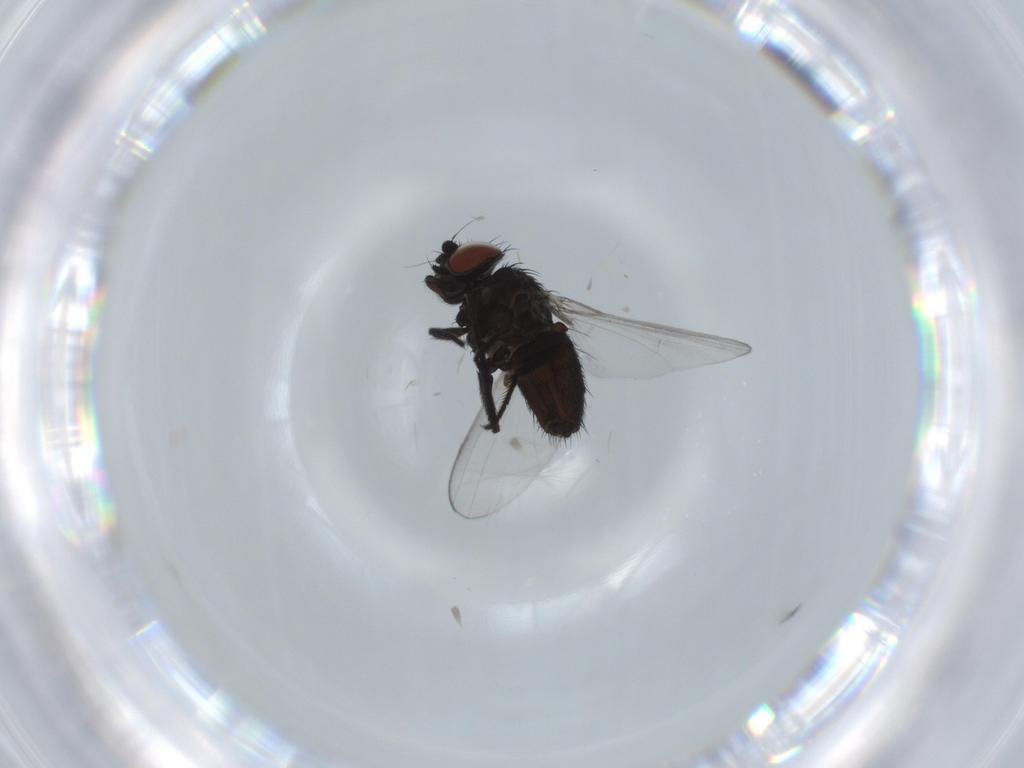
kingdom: Animalia
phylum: Arthropoda
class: Insecta
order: Diptera
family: Milichiidae
